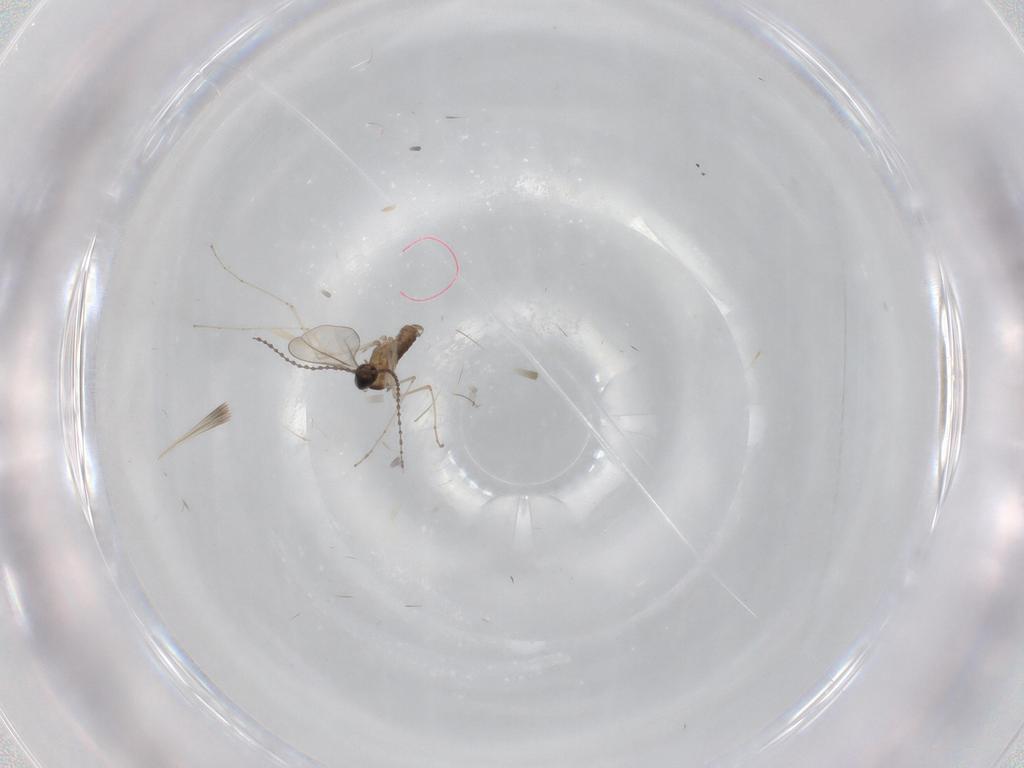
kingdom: Animalia
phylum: Arthropoda
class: Insecta
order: Diptera
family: Cecidomyiidae
